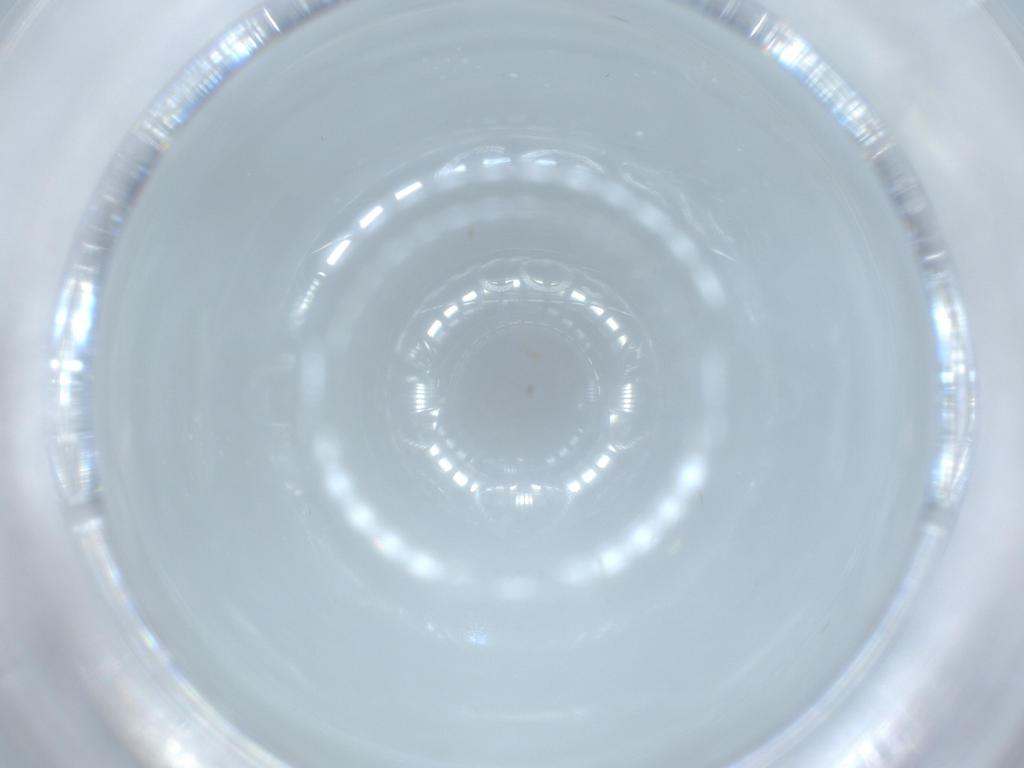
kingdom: Animalia
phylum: Arthropoda
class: Insecta
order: Diptera
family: Sciaridae
